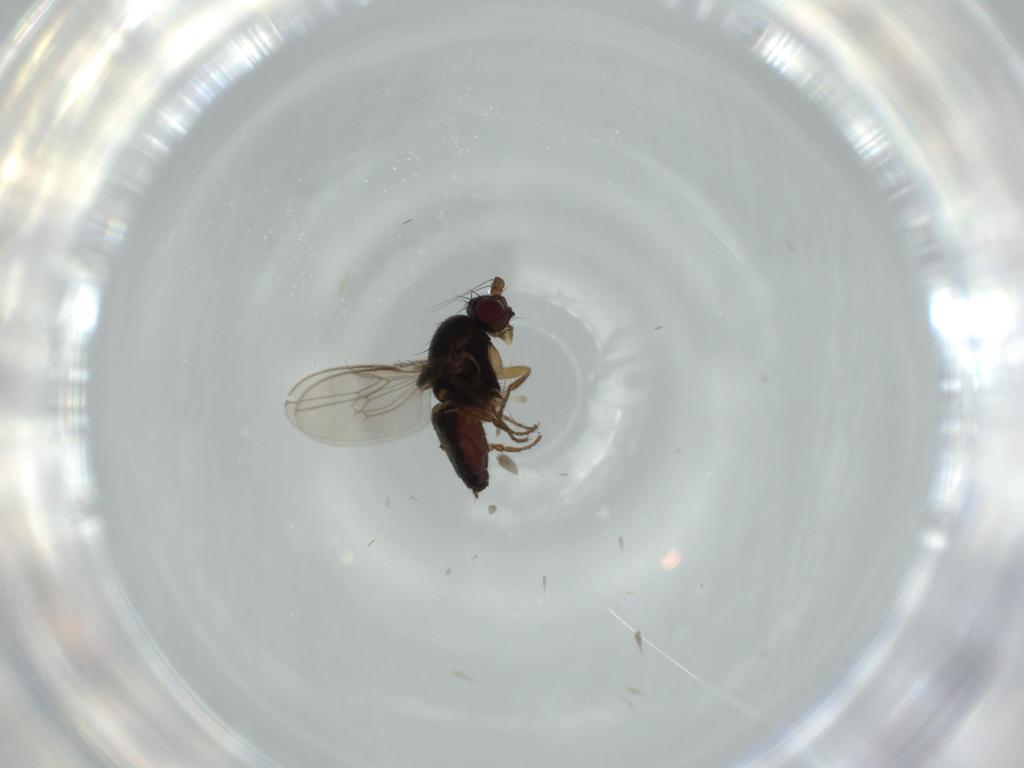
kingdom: Animalia
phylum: Arthropoda
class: Insecta
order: Diptera
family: Sphaeroceridae
